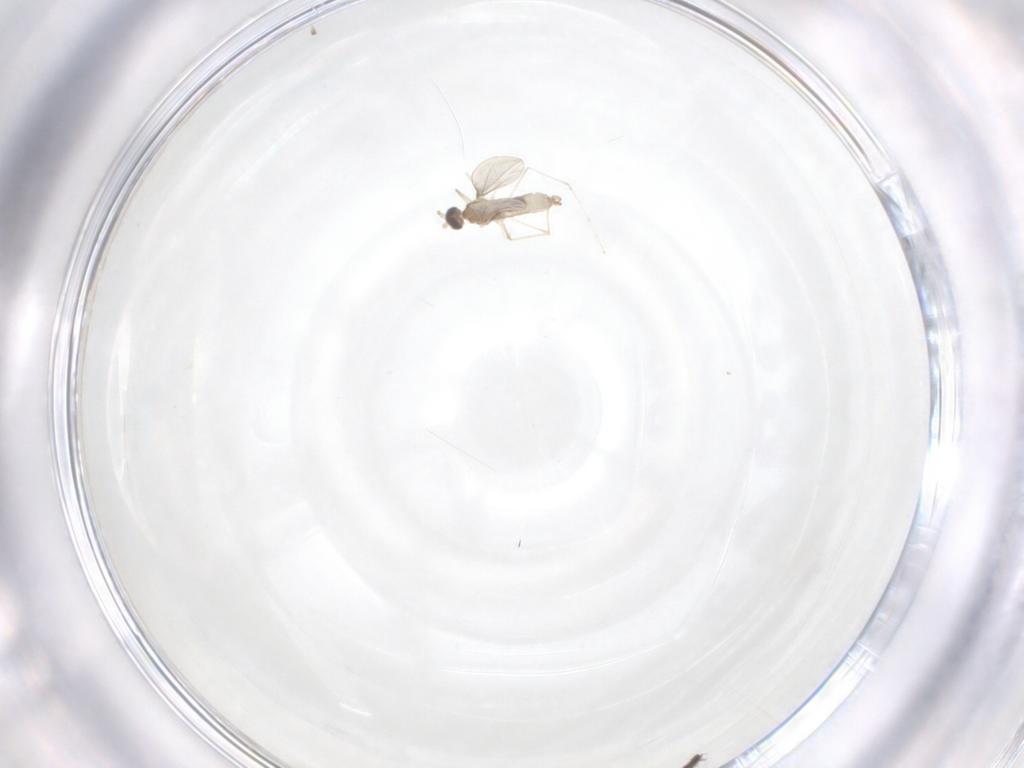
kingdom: Animalia
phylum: Arthropoda
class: Insecta
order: Diptera
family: Cecidomyiidae
